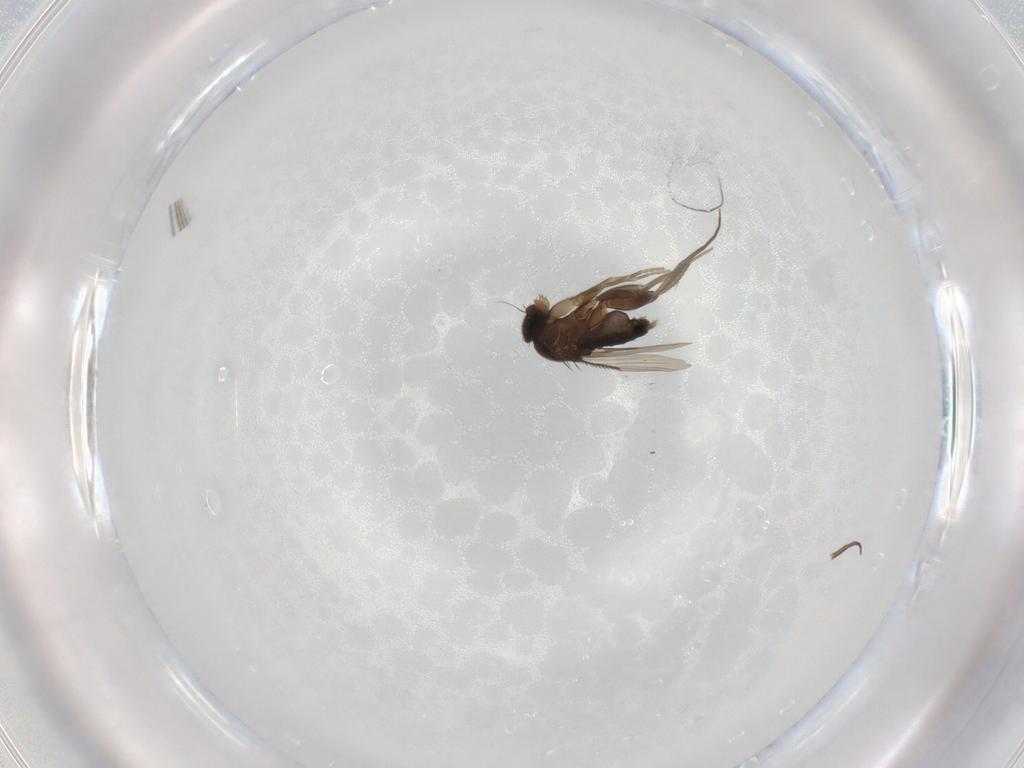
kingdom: Animalia
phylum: Arthropoda
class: Insecta
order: Diptera
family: Phoridae
